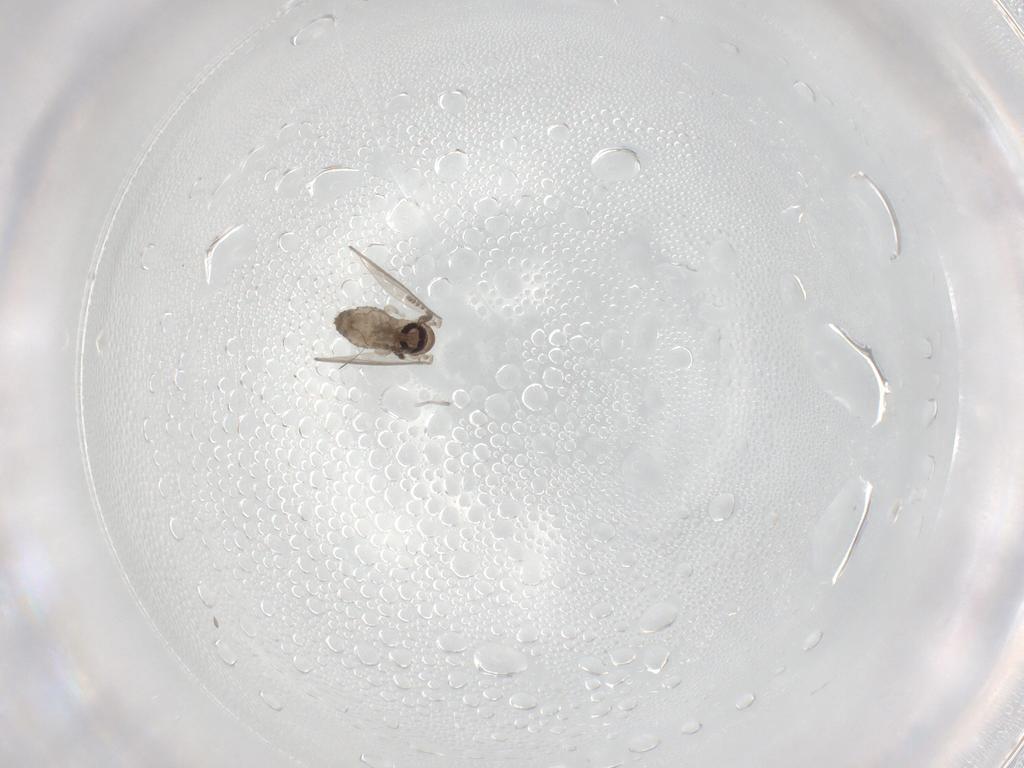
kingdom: Animalia
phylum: Arthropoda
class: Insecta
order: Diptera
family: Psychodidae
